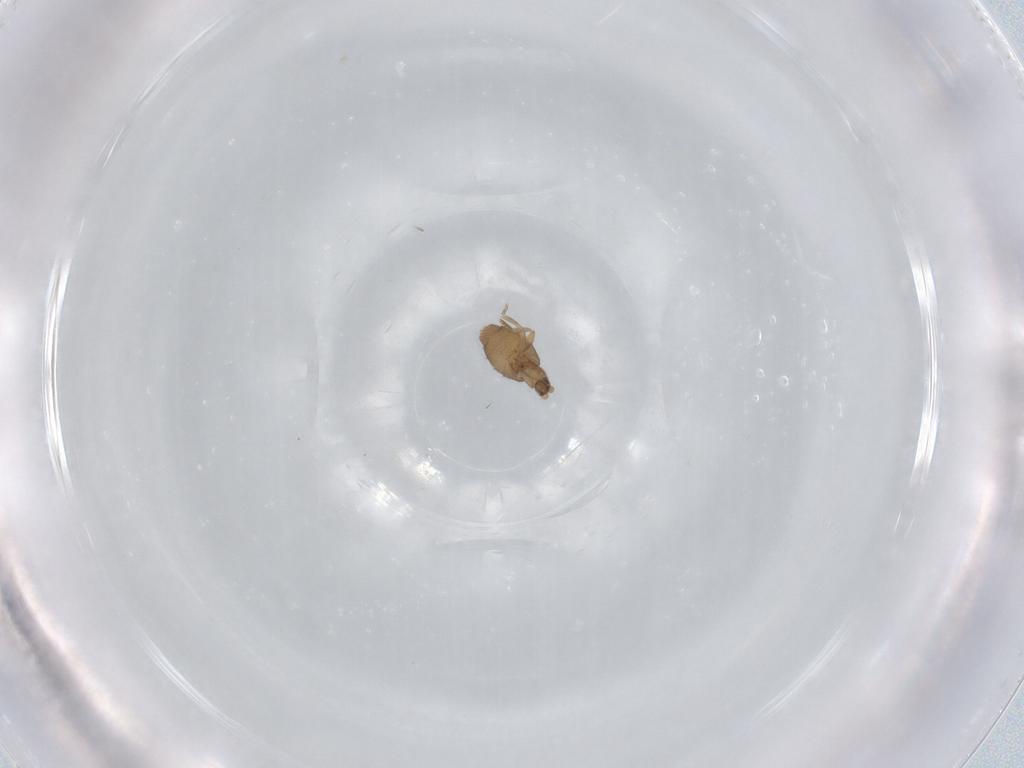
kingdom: Animalia
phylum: Arthropoda
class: Insecta
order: Diptera
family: Phoridae
